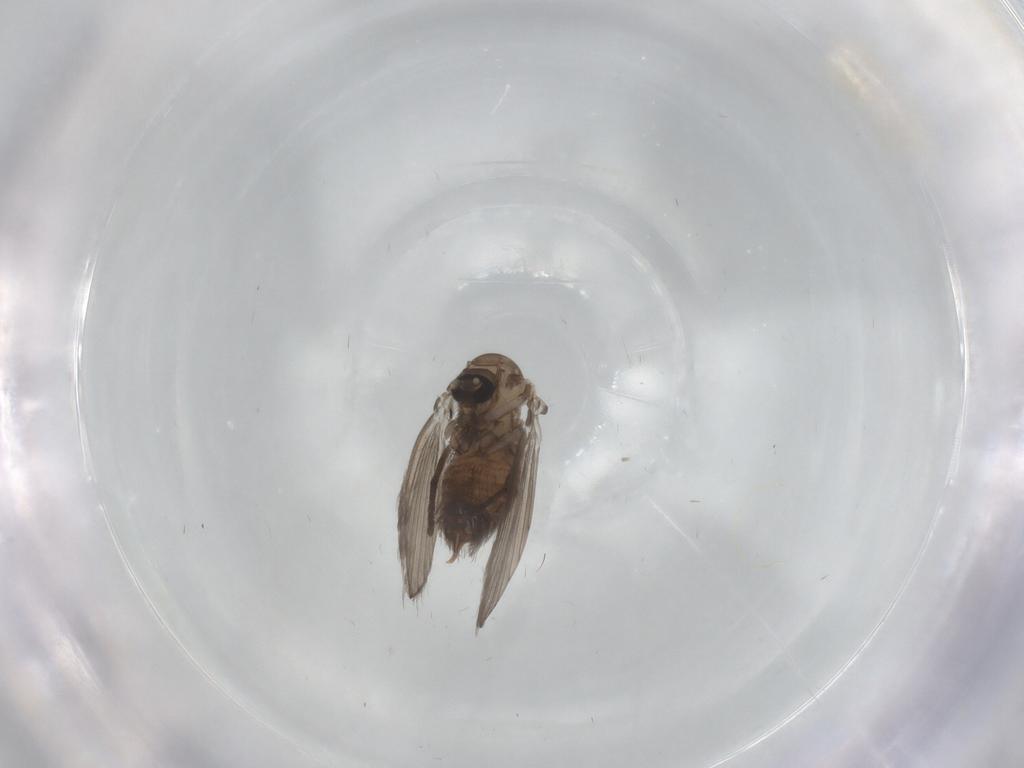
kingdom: Animalia
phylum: Arthropoda
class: Insecta
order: Diptera
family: Psychodidae
